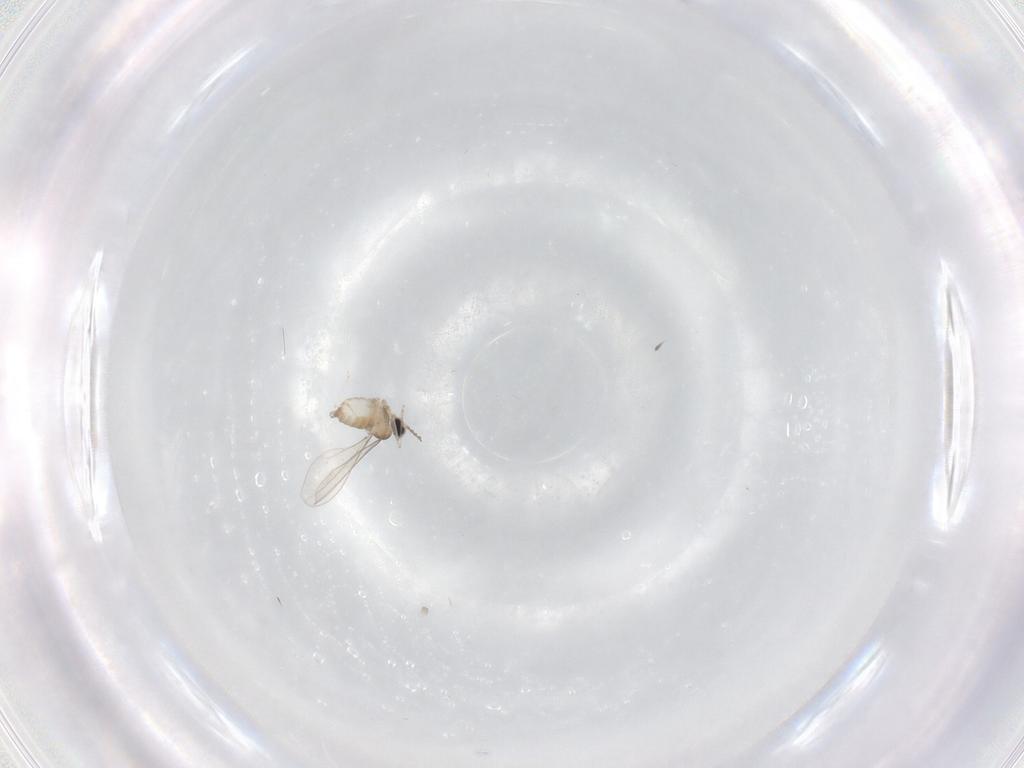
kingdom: Animalia
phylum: Arthropoda
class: Insecta
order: Diptera
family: Cecidomyiidae
